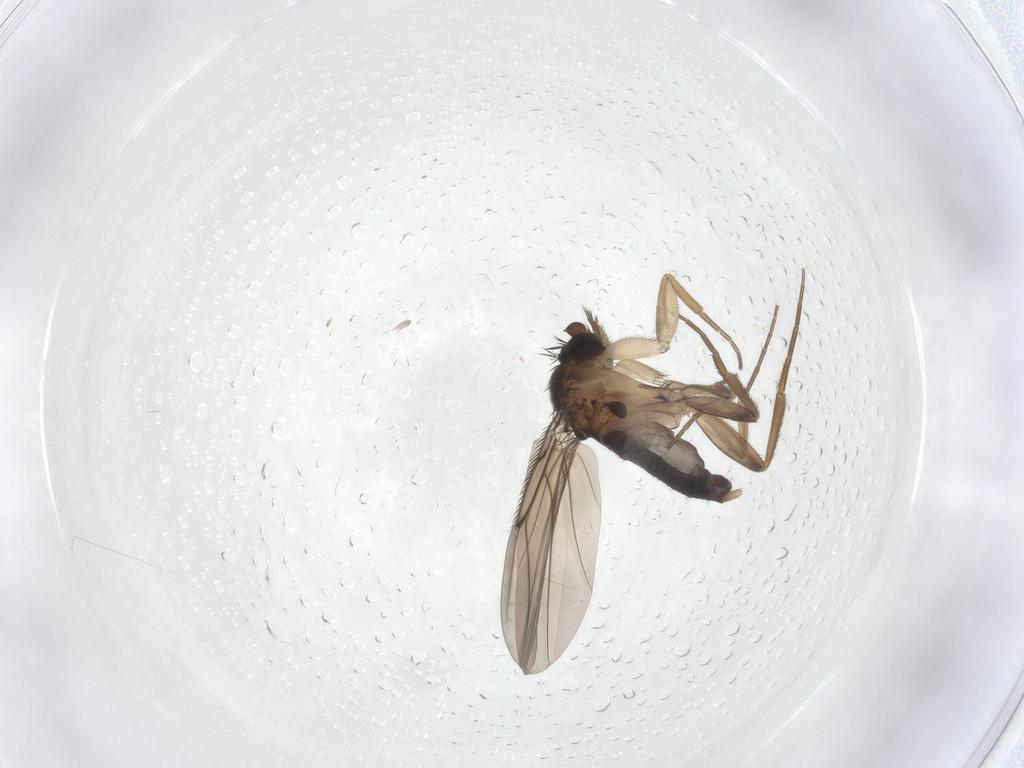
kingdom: Animalia
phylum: Arthropoda
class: Insecta
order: Diptera
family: Phoridae
